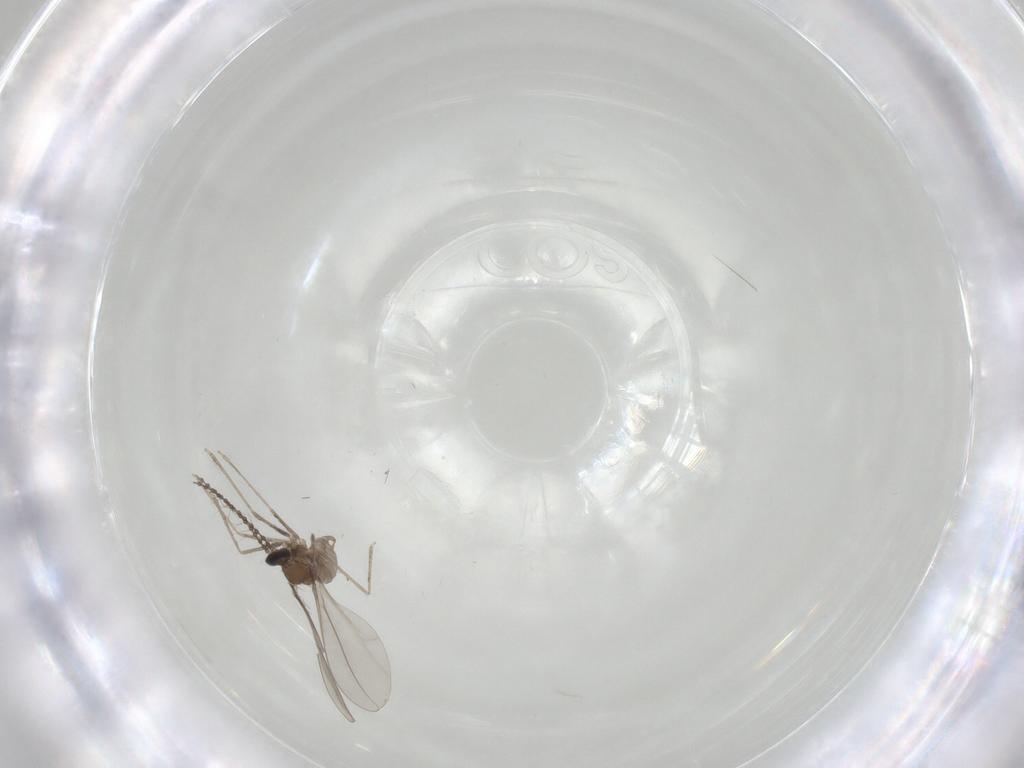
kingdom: Animalia
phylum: Arthropoda
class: Insecta
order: Diptera
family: Cecidomyiidae
